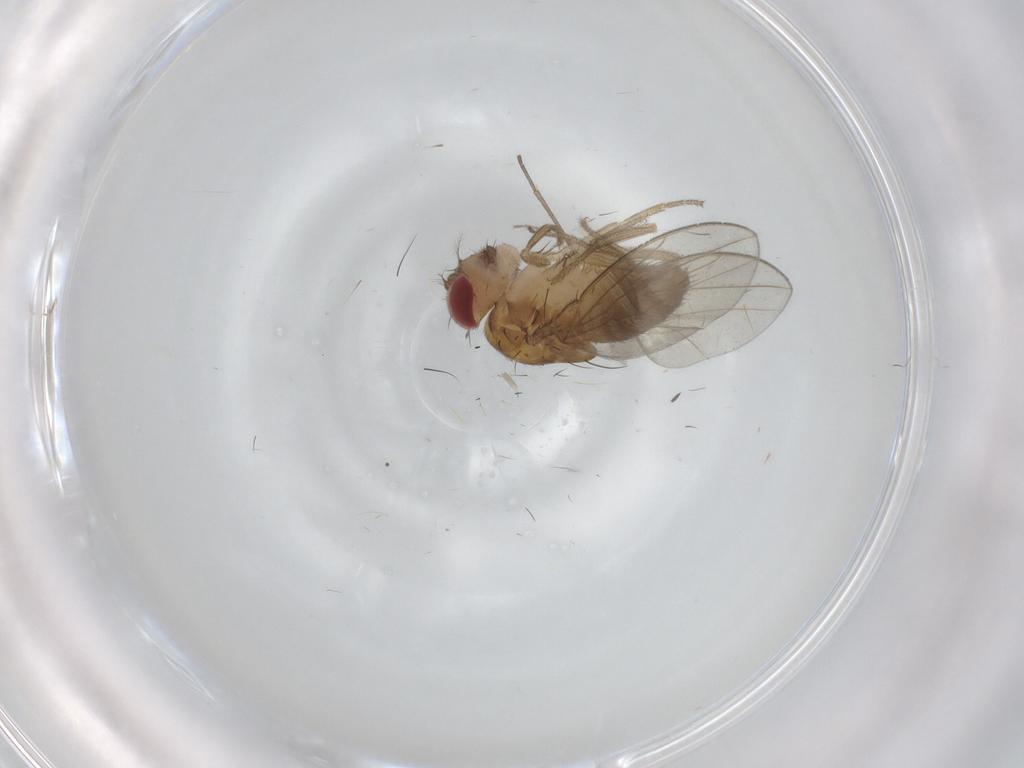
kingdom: Animalia
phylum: Arthropoda
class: Insecta
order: Diptera
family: Drosophilidae
